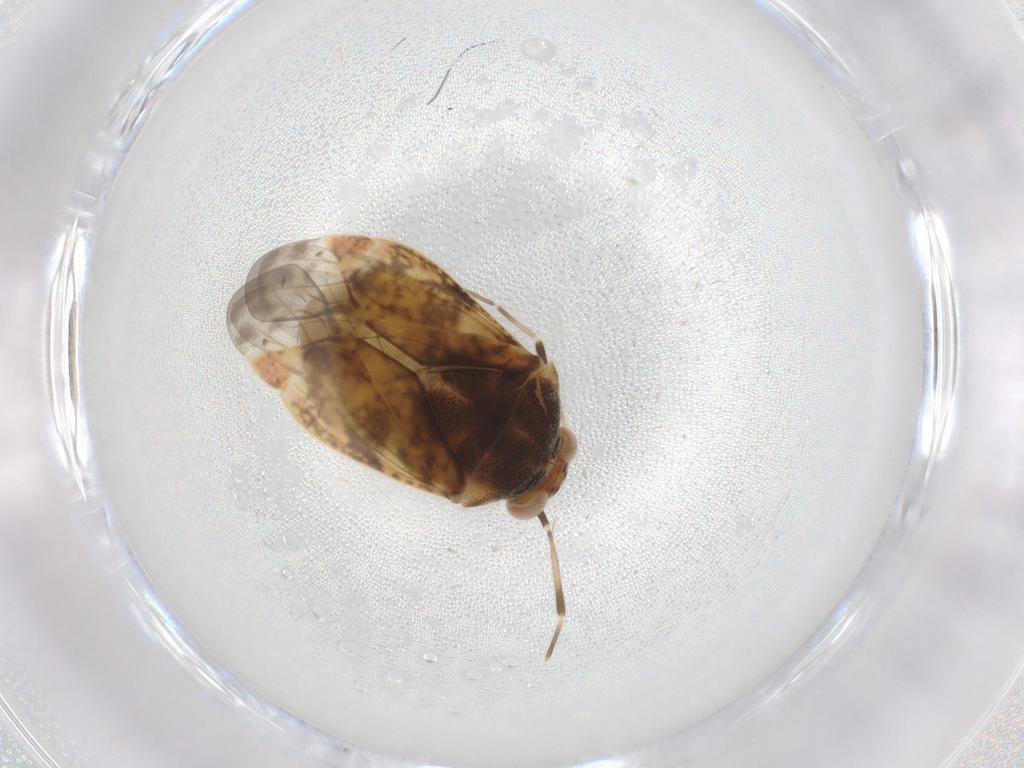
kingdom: Animalia
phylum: Arthropoda
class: Insecta
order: Hemiptera
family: Miridae
